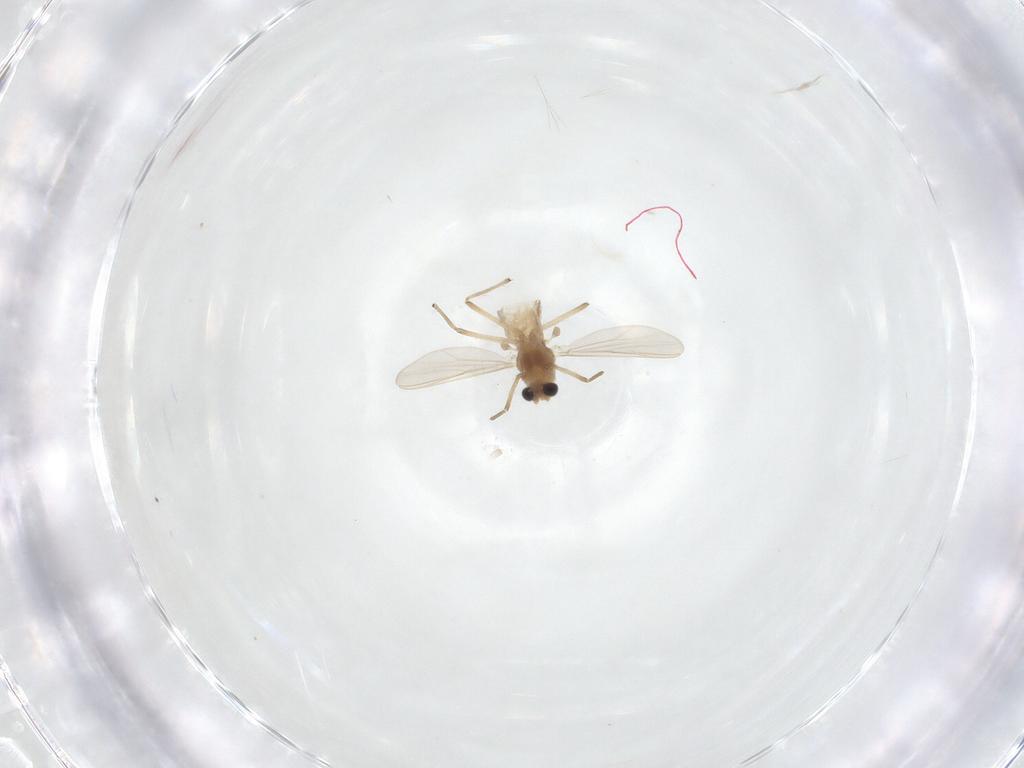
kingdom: Animalia
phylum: Arthropoda
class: Insecta
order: Diptera
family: Chironomidae
